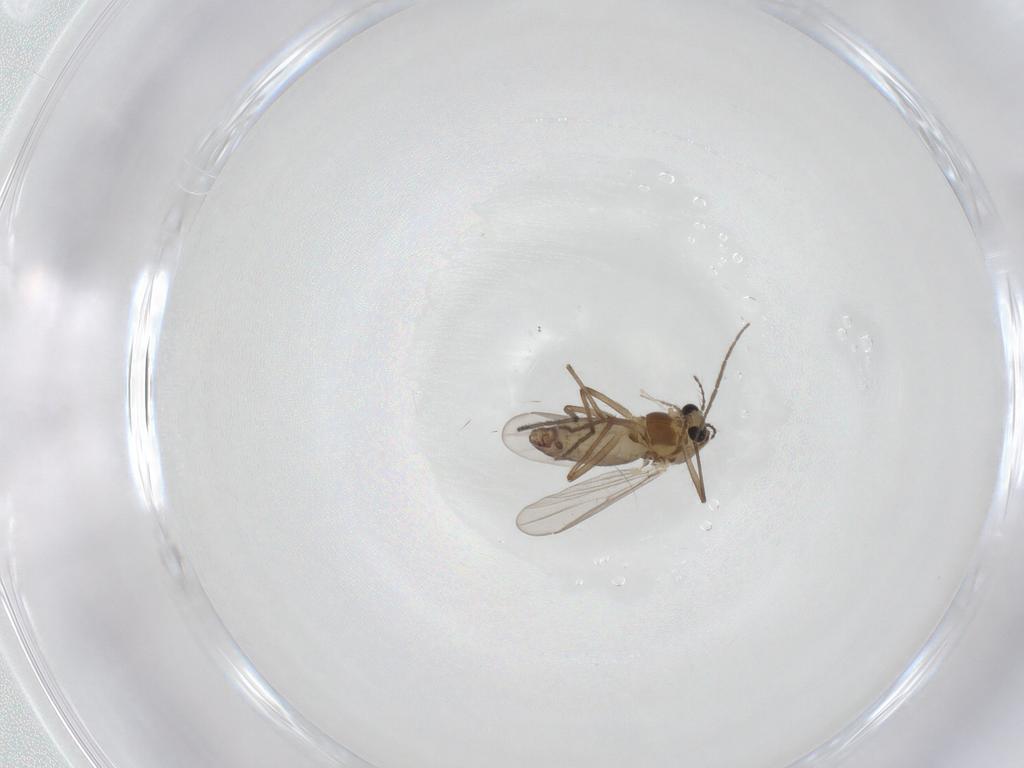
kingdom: Animalia
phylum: Arthropoda
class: Insecta
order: Diptera
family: Chironomidae
